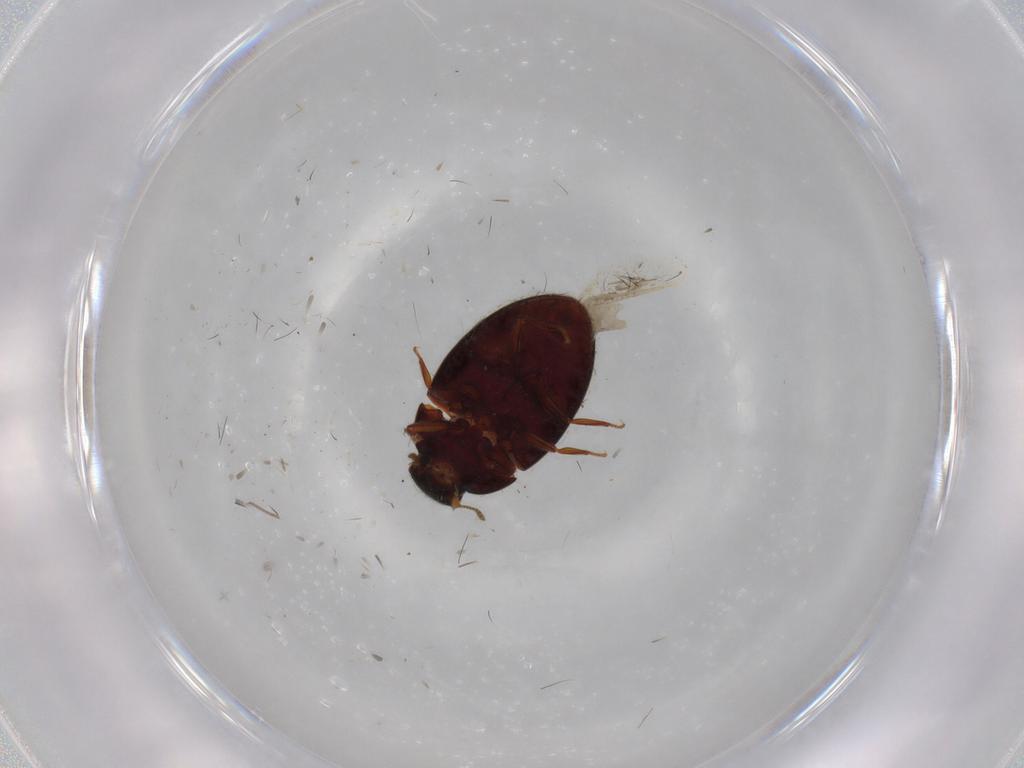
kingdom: Animalia
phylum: Arthropoda
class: Insecta
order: Coleoptera
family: Limnichidae
